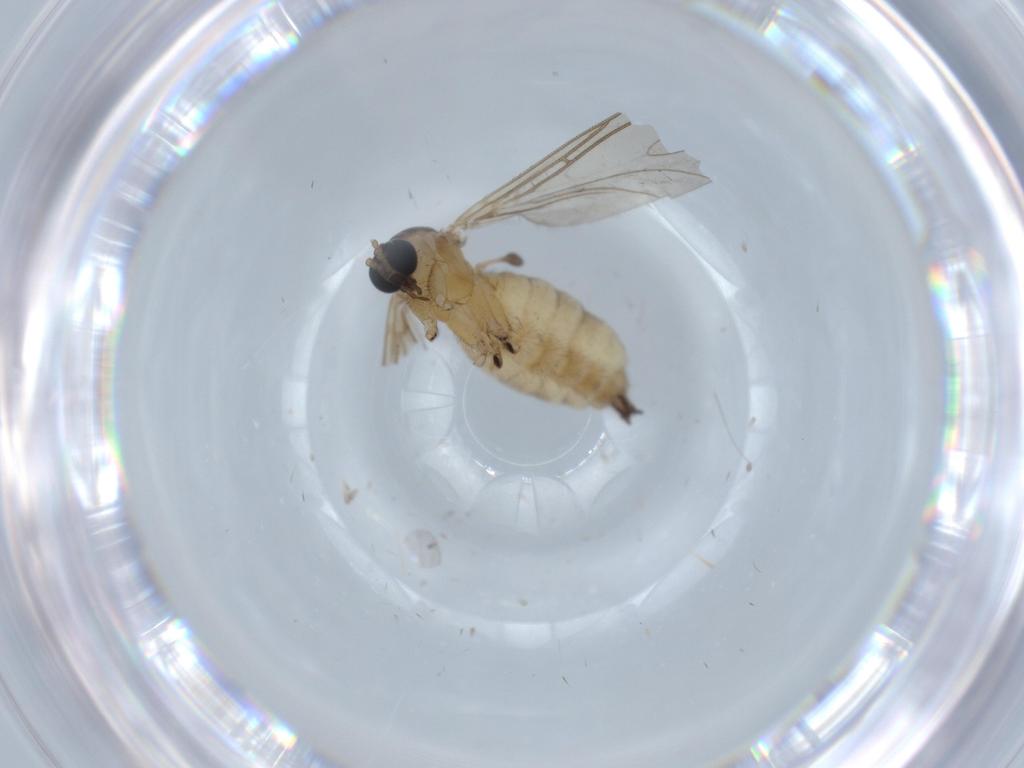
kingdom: Animalia
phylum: Arthropoda
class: Insecta
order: Diptera
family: Sciaridae
